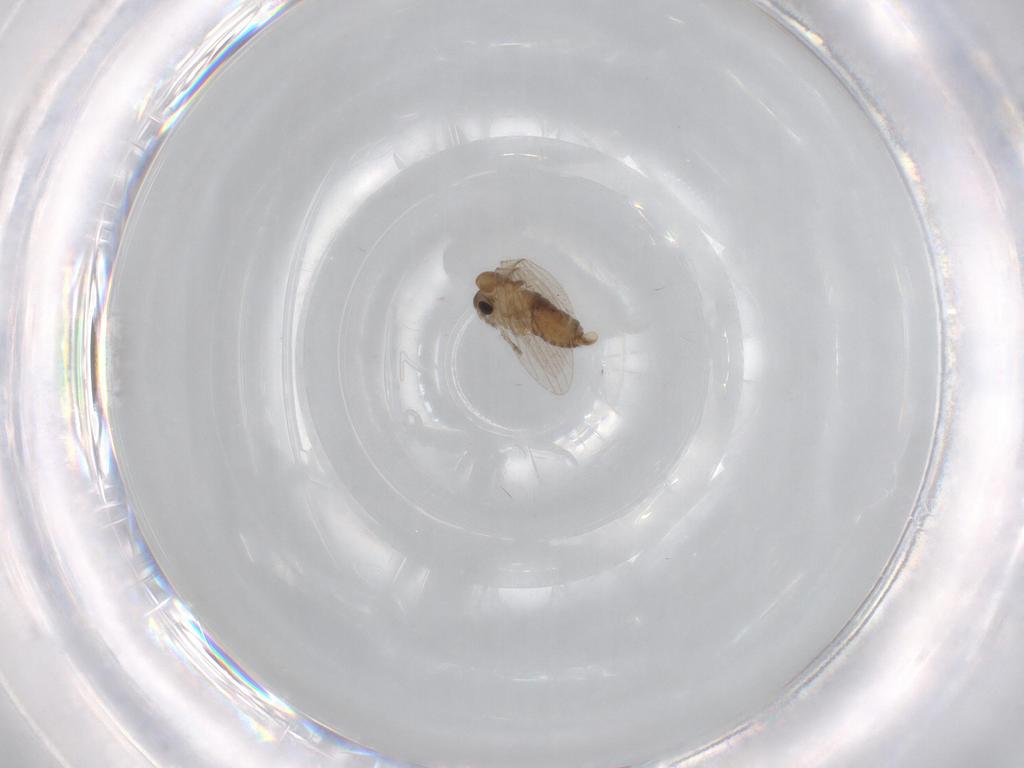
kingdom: Animalia
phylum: Arthropoda
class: Insecta
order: Diptera
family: Psychodidae
